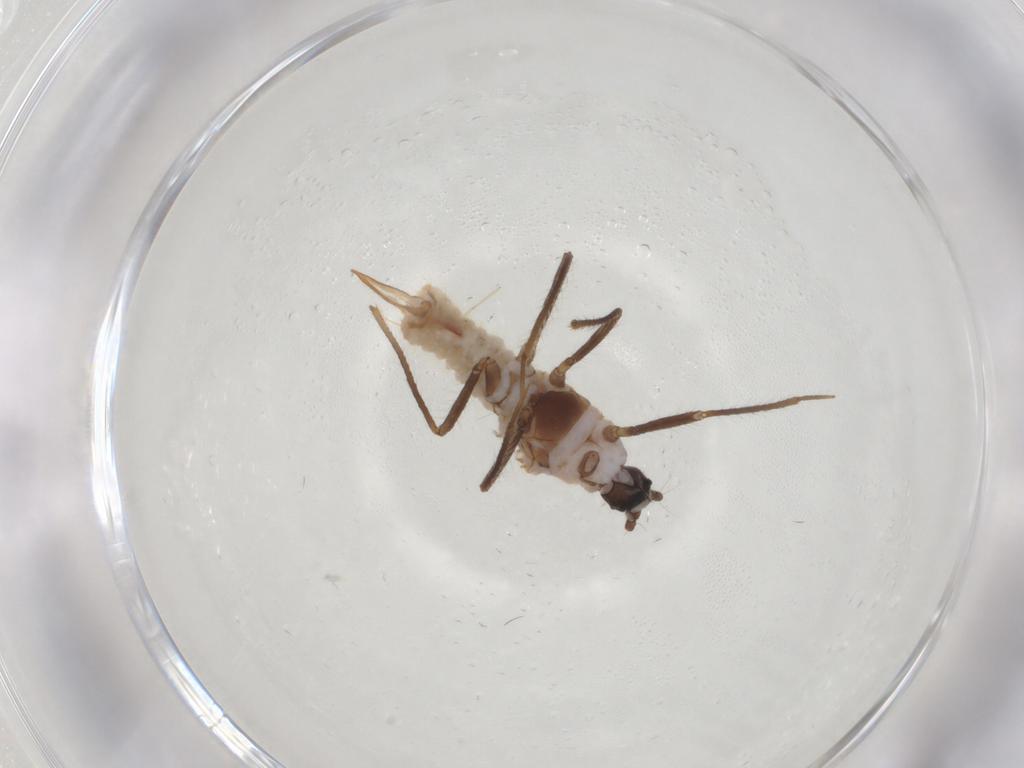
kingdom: Animalia
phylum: Arthropoda
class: Insecta
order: Hemiptera
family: Putoidae
